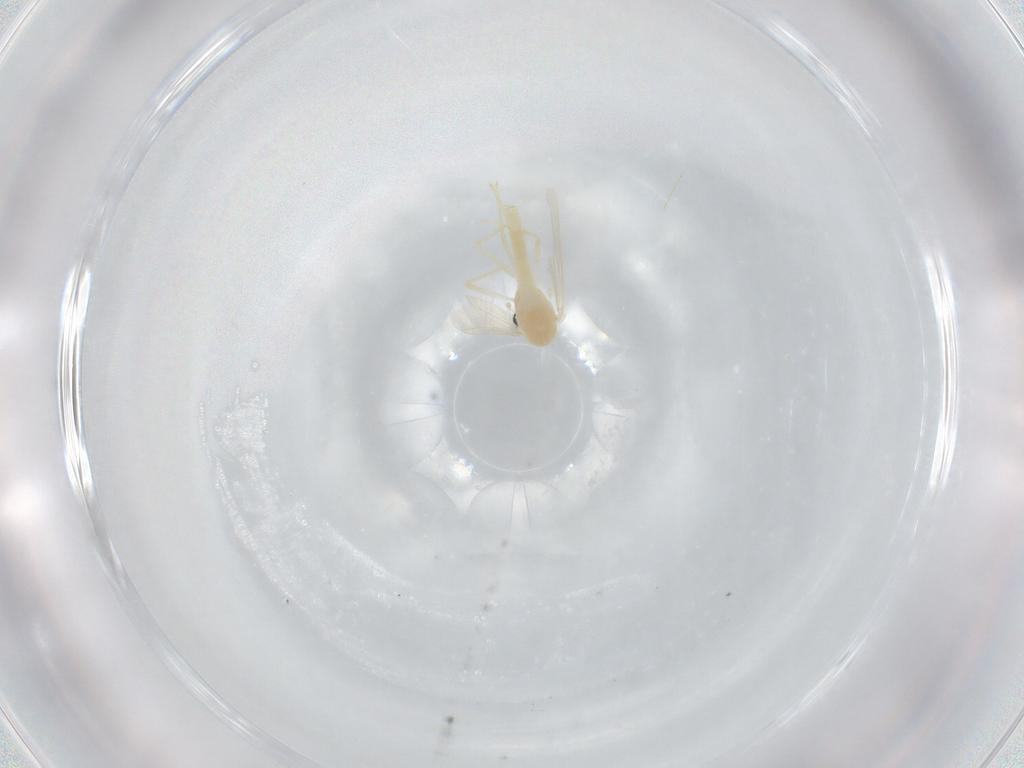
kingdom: Animalia
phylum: Arthropoda
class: Insecta
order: Diptera
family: Chironomidae
